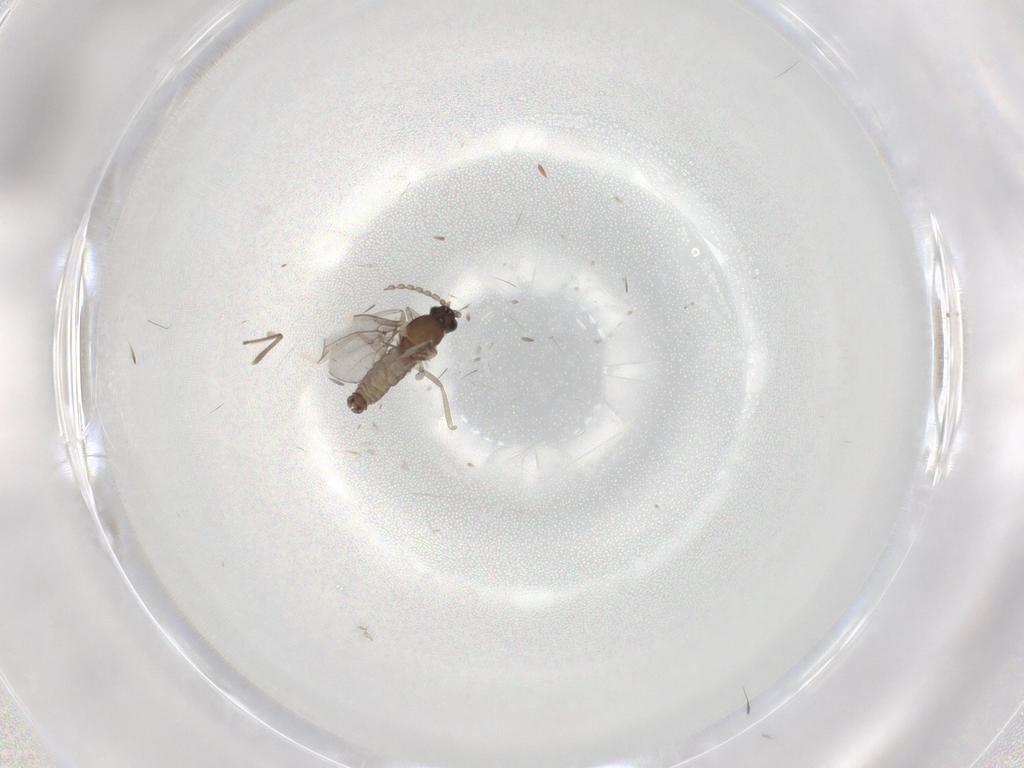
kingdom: Animalia
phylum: Arthropoda
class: Insecta
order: Diptera
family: Cecidomyiidae
